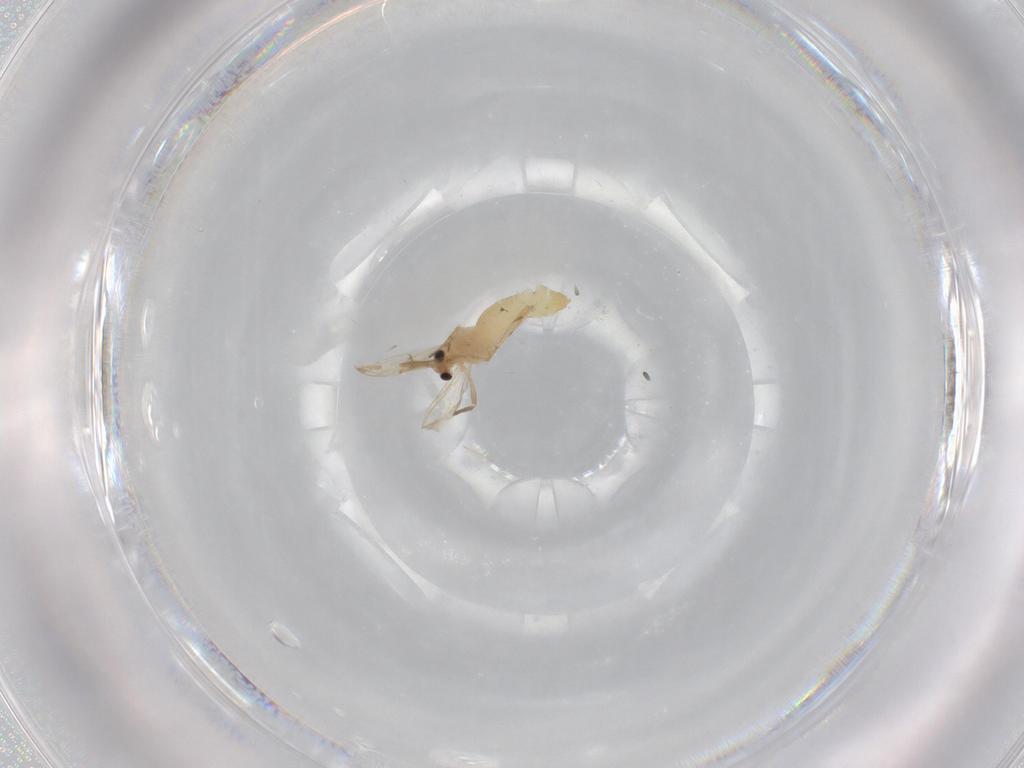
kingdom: Animalia
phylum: Arthropoda
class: Insecta
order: Diptera
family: Chironomidae
